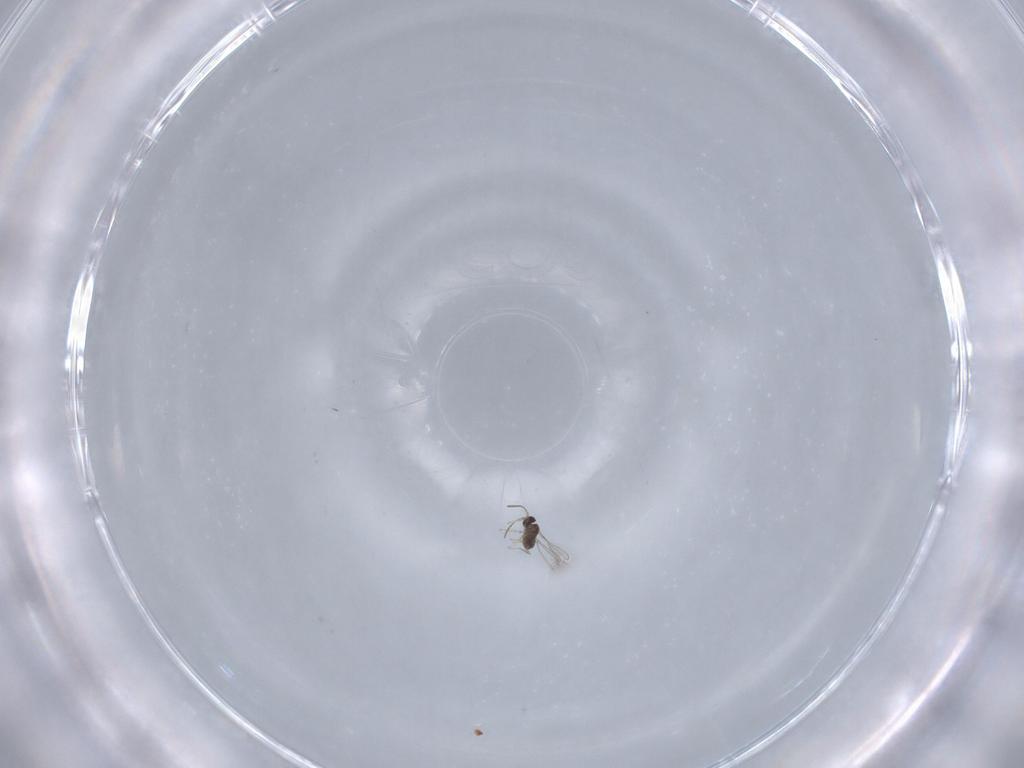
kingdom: Animalia
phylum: Arthropoda
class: Insecta
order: Hymenoptera
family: Mymaridae
